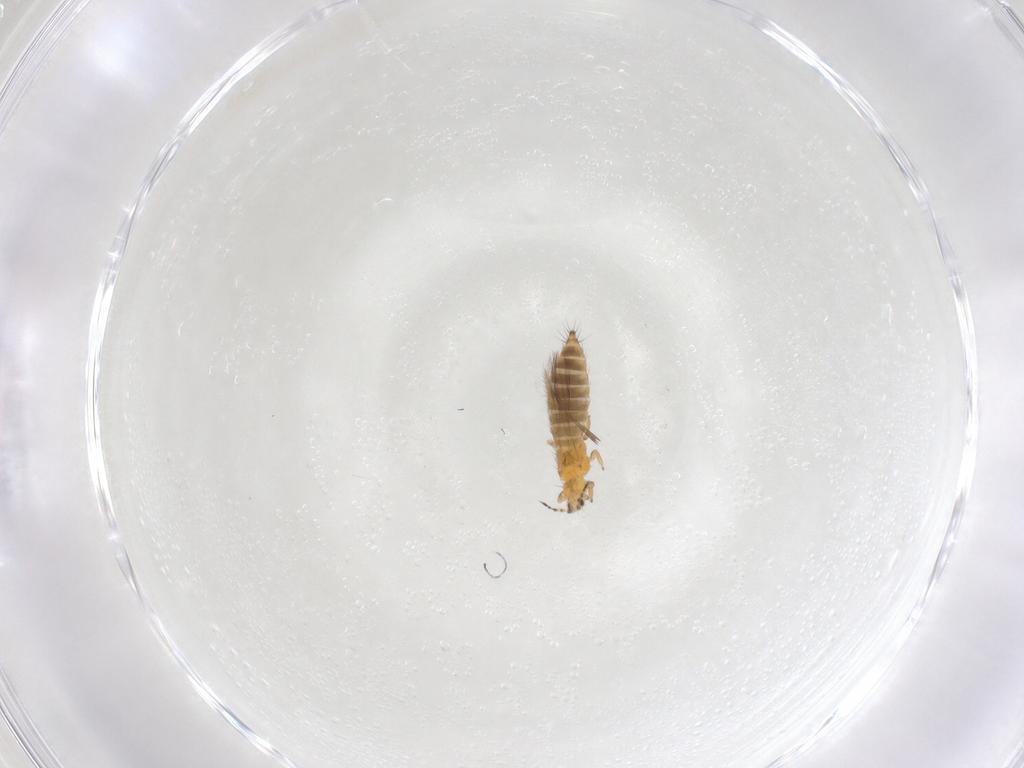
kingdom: Animalia
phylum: Arthropoda
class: Insecta
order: Thysanoptera
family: Thripidae
